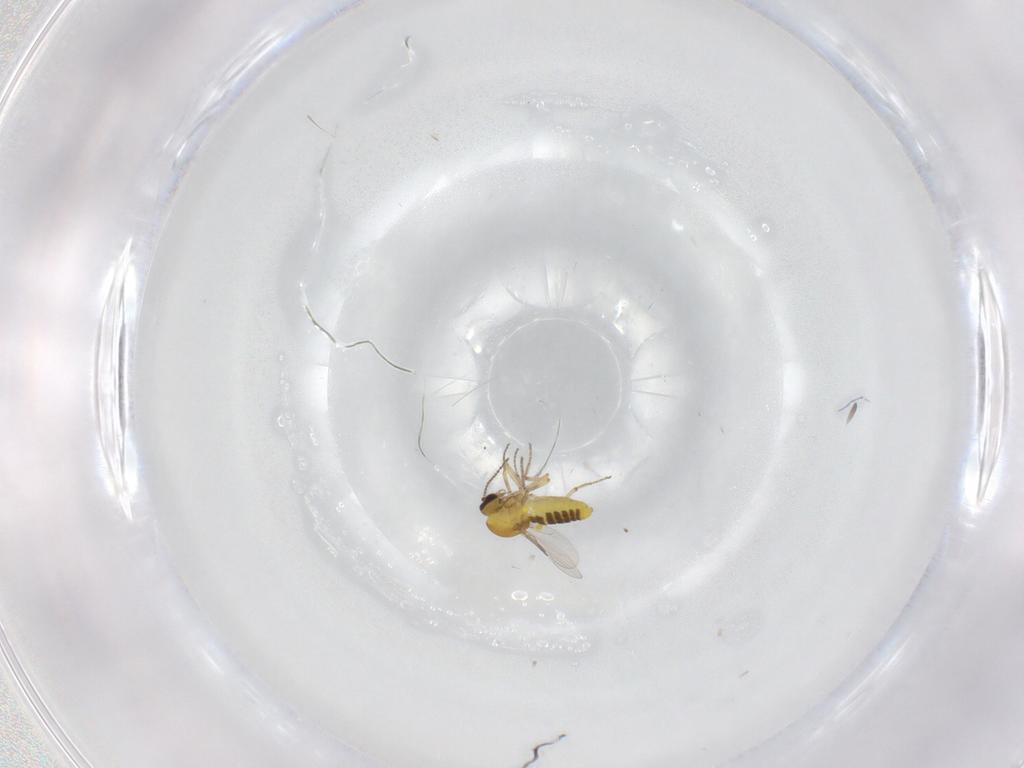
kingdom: Animalia
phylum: Arthropoda
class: Insecta
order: Diptera
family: Ceratopogonidae
